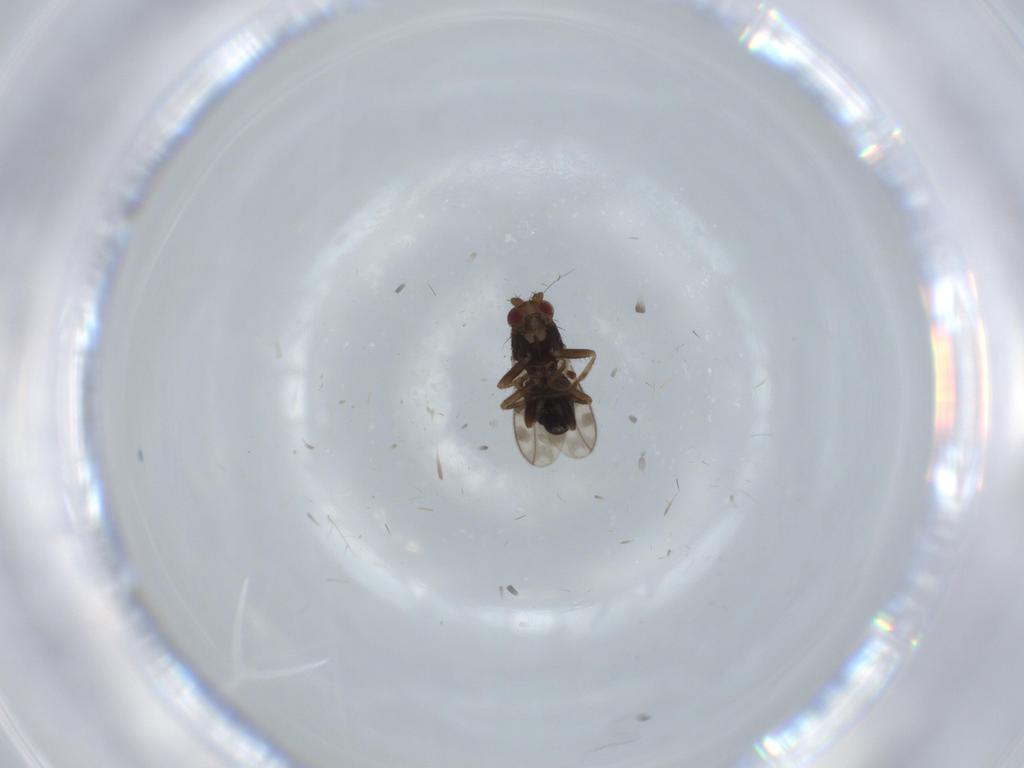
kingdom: Animalia
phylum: Arthropoda
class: Insecta
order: Diptera
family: Sphaeroceridae
